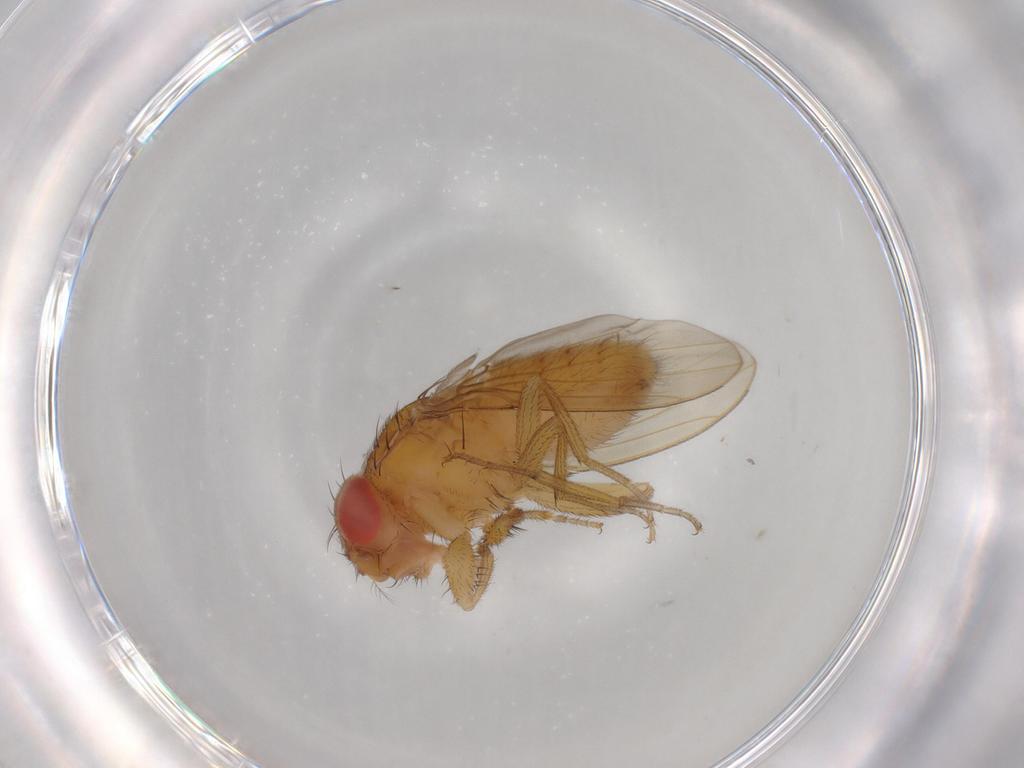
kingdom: Animalia
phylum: Arthropoda
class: Insecta
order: Diptera
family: Drosophilidae
